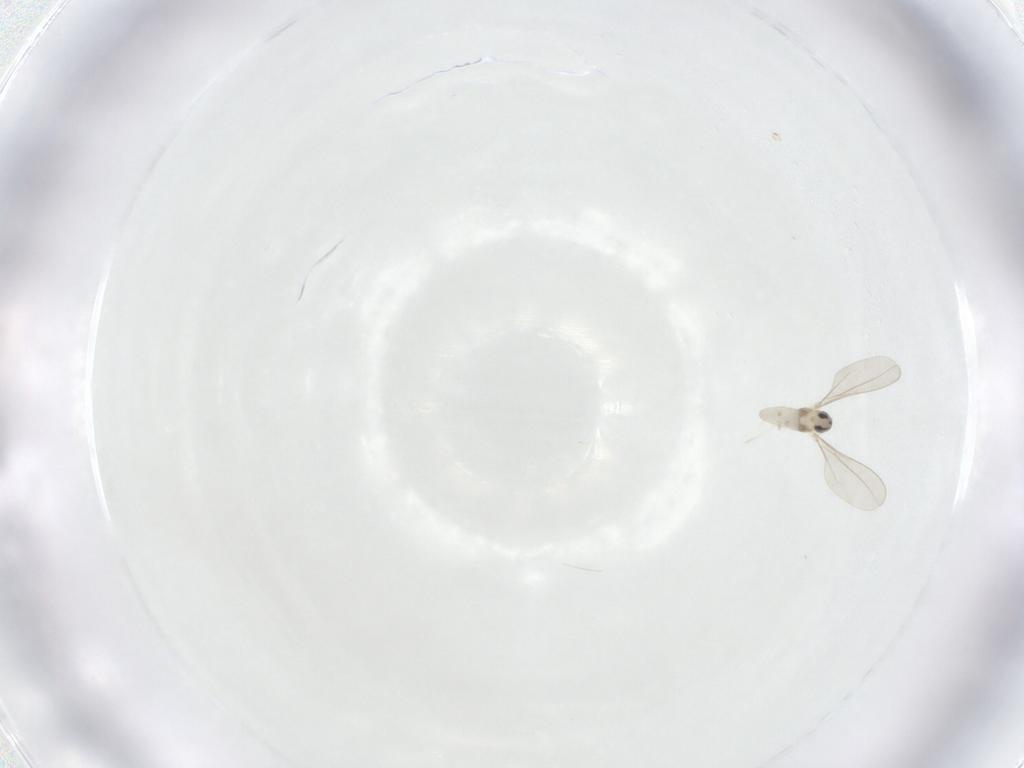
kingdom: Animalia
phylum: Arthropoda
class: Insecta
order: Diptera
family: Cecidomyiidae
